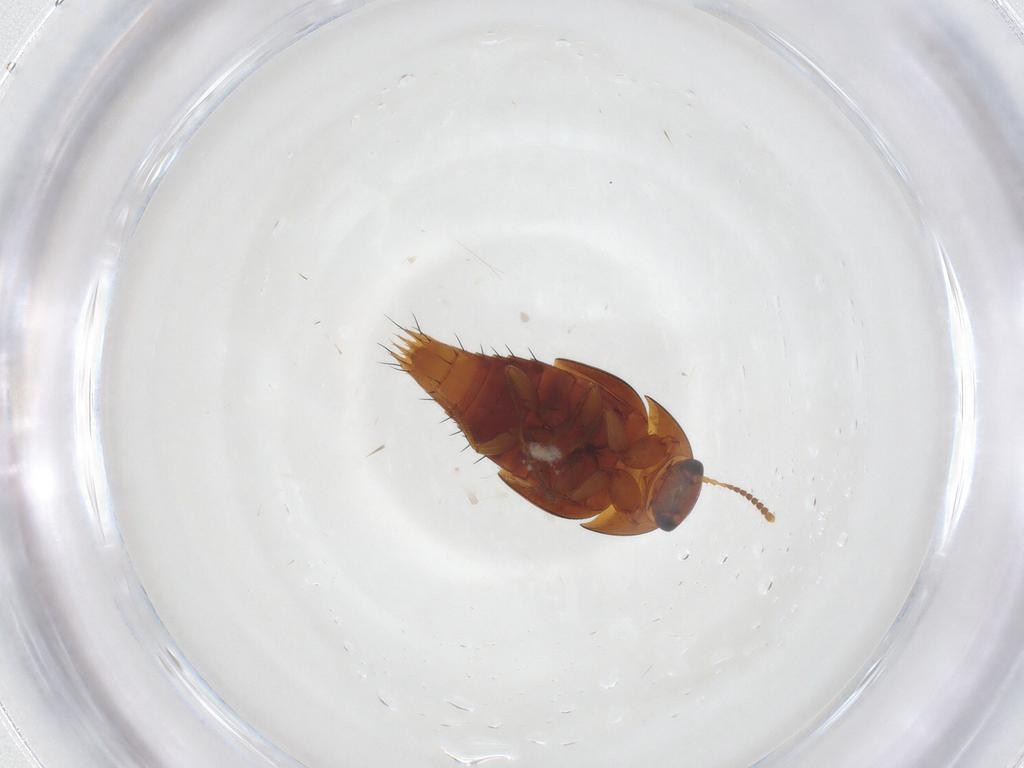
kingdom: Animalia
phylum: Arthropoda
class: Insecta
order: Coleoptera
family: Staphylinidae
